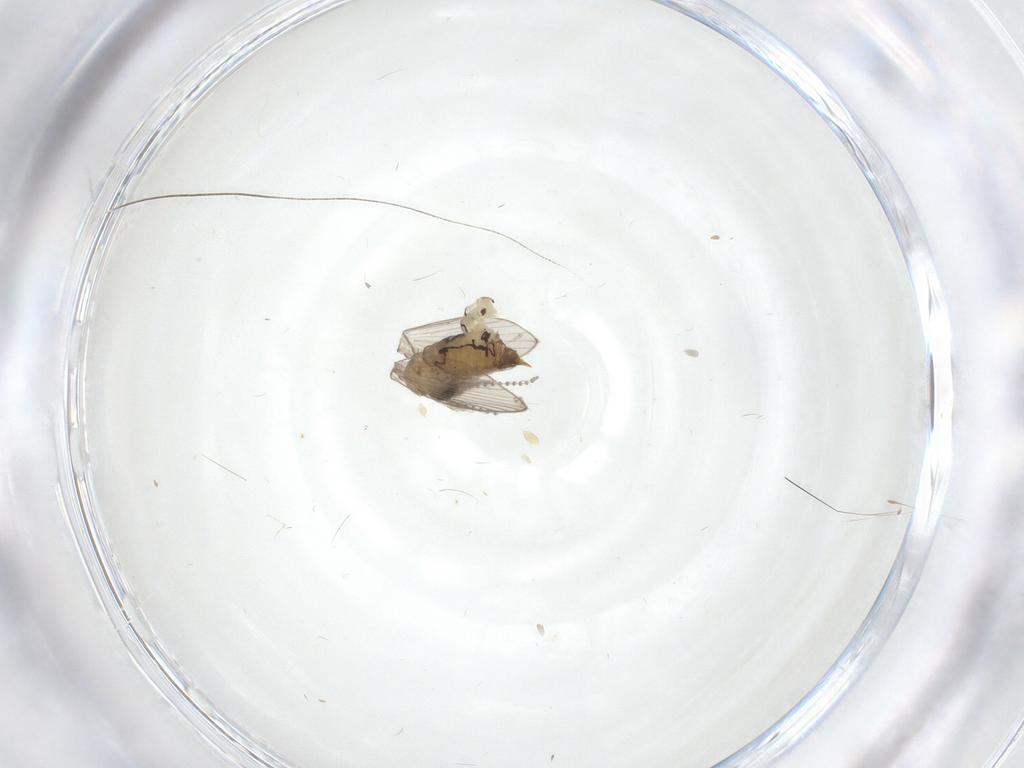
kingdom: Animalia
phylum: Arthropoda
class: Insecta
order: Diptera
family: Psychodidae
